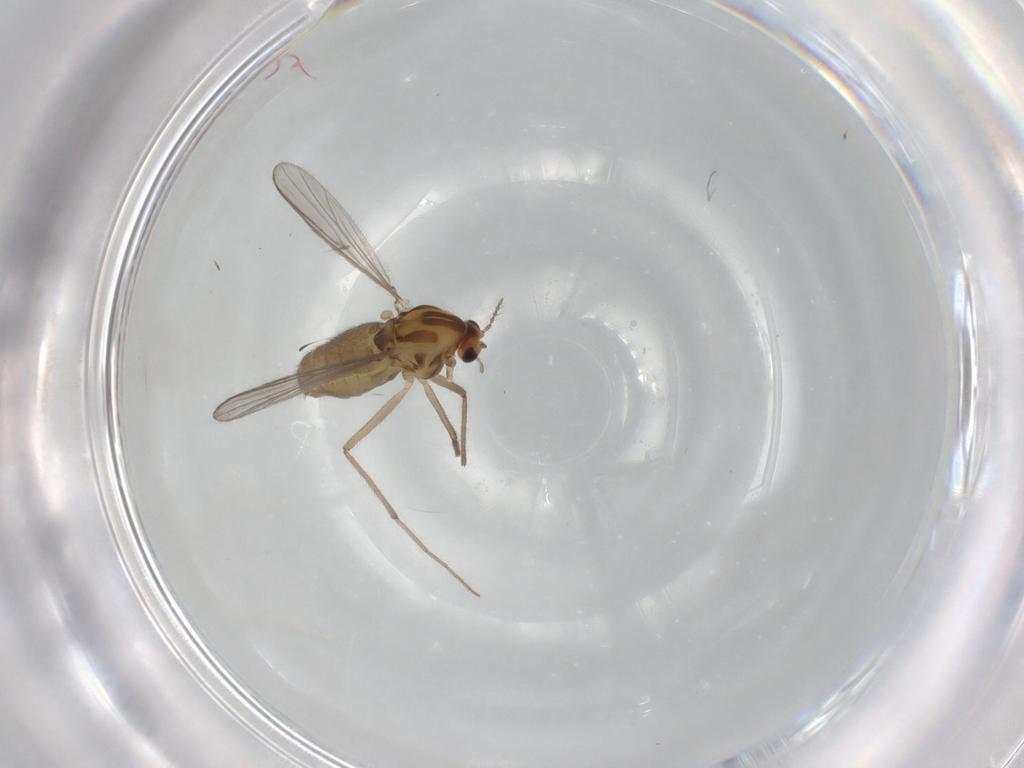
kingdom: Animalia
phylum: Arthropoda
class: Insecta
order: Diptera
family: Chironomidae
